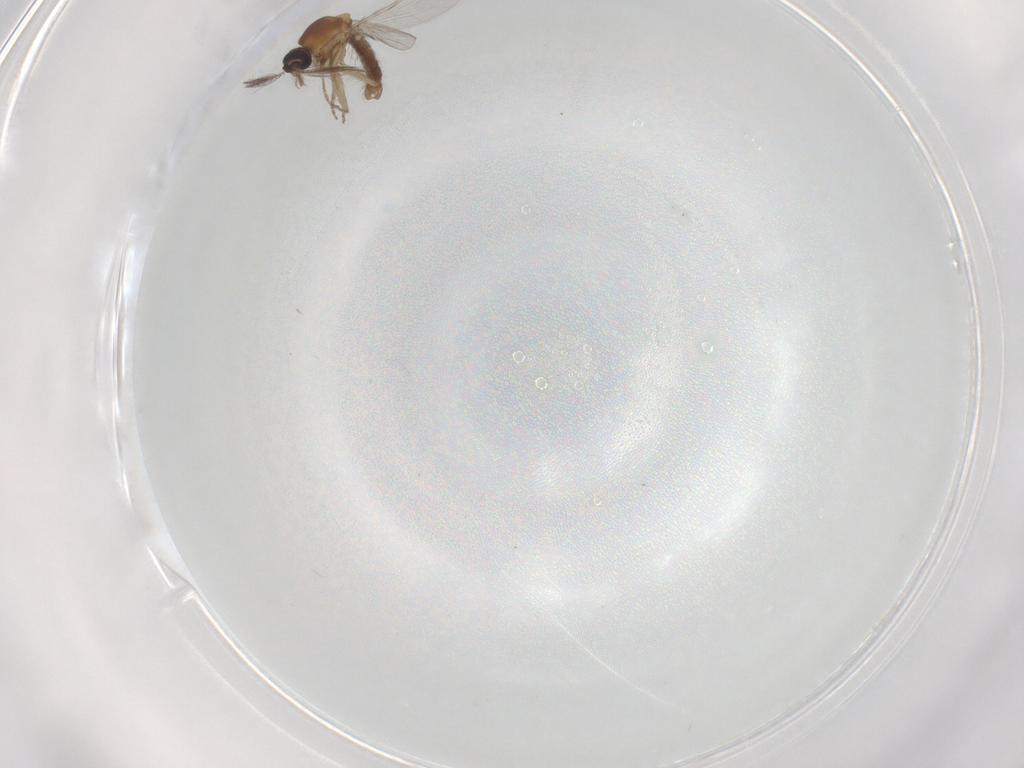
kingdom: Animalia
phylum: Arthropoda
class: Insecta
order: Diptera
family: Ceratopogonidae
